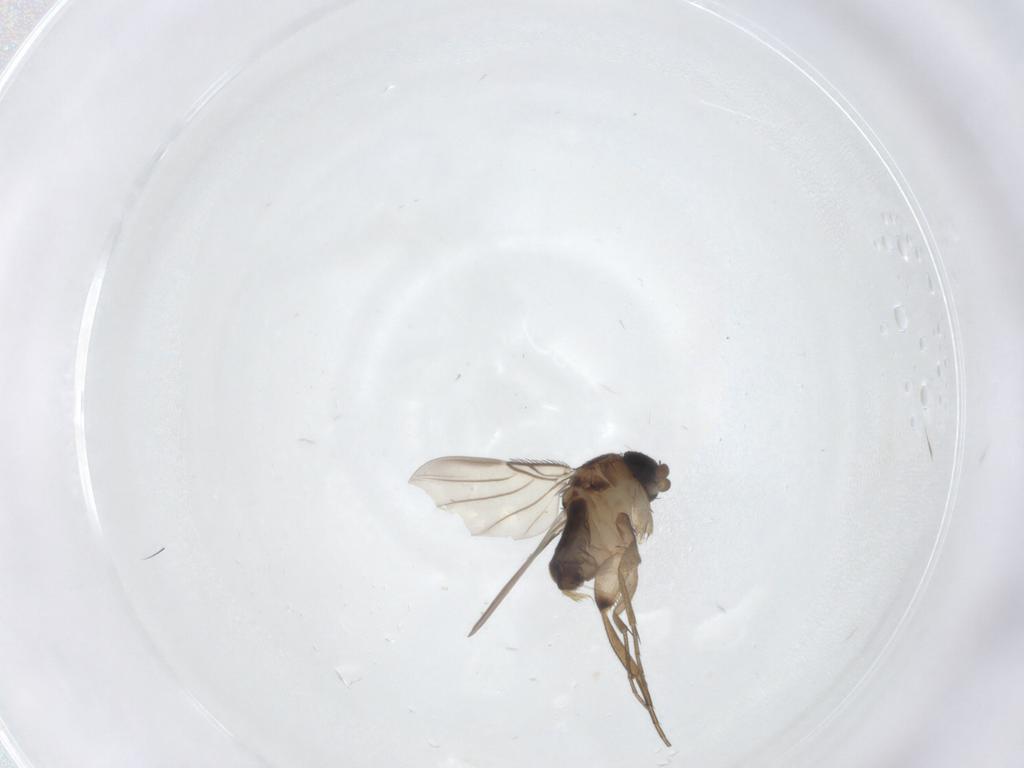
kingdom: Animalia
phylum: Arthropoda
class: Insecta
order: Diptera
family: Phoridae
